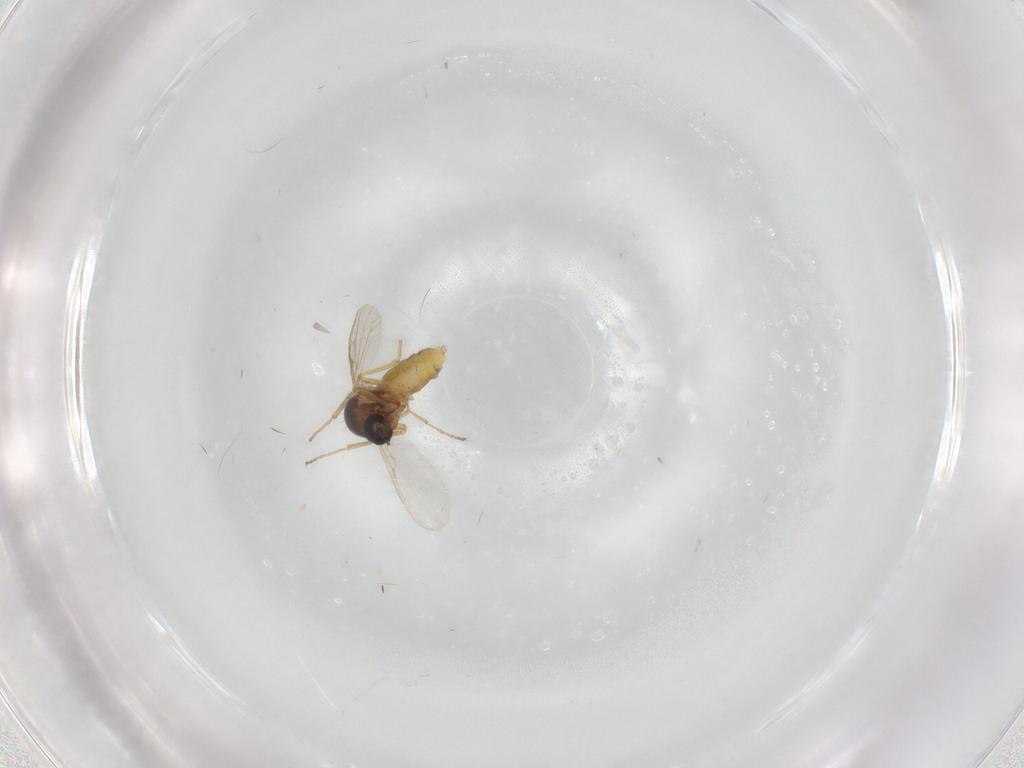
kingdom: Animalia
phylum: Arthropoda
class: Insecta
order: Diptera
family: Ceratopogonidae
